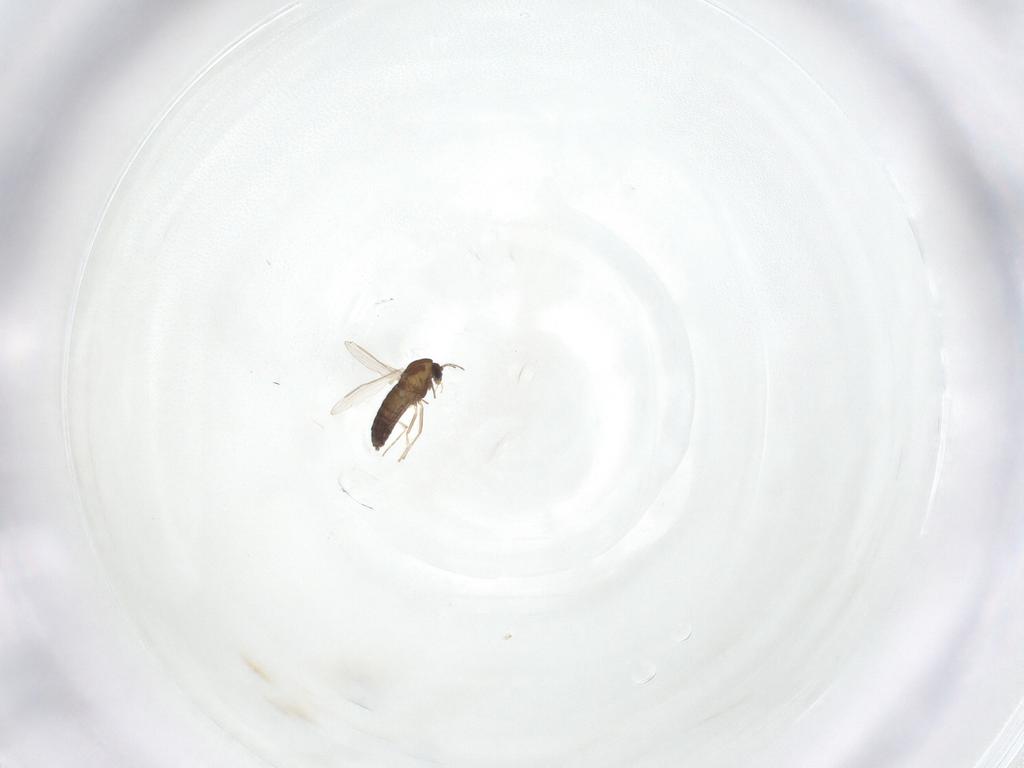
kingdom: Animalia
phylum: Arthropoda
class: Insecta
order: Diptera
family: Chironomidae
